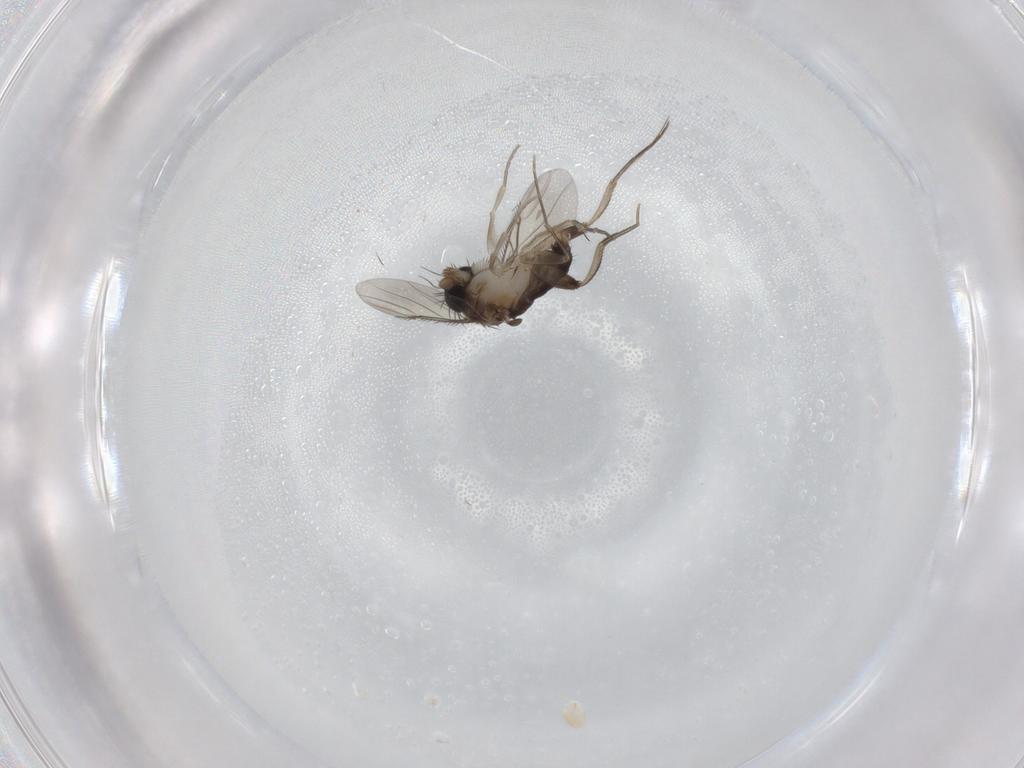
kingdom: Animalia
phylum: Arthropoda
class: Insecta
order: Diptera
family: Phoridae
